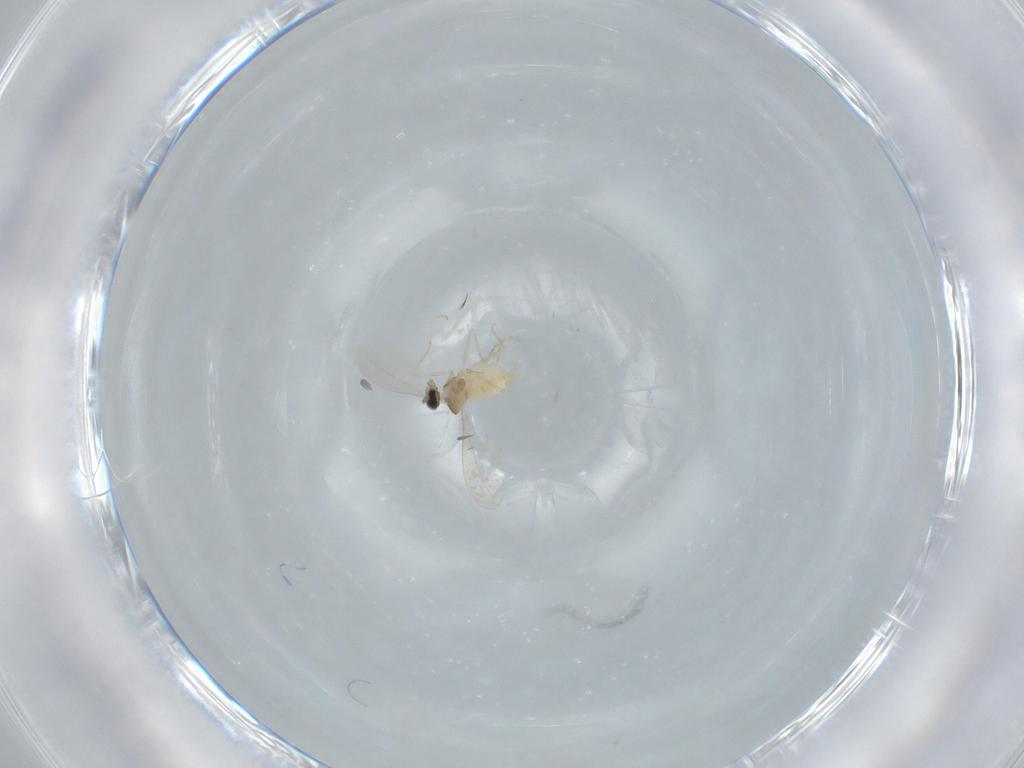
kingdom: Animalia
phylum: Arthropoda
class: Insecta
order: Diptera
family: Cecidomyiidae
